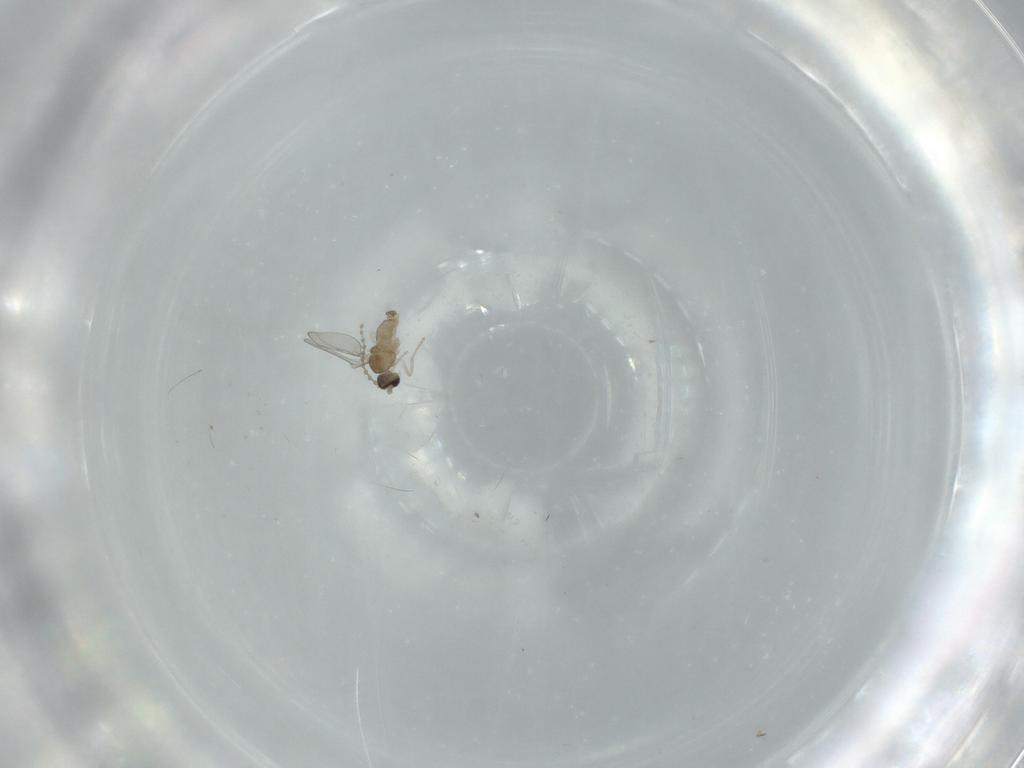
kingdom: Animalia
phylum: Arthropoda
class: Insecta
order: Diptera
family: Cecidomyiidae
